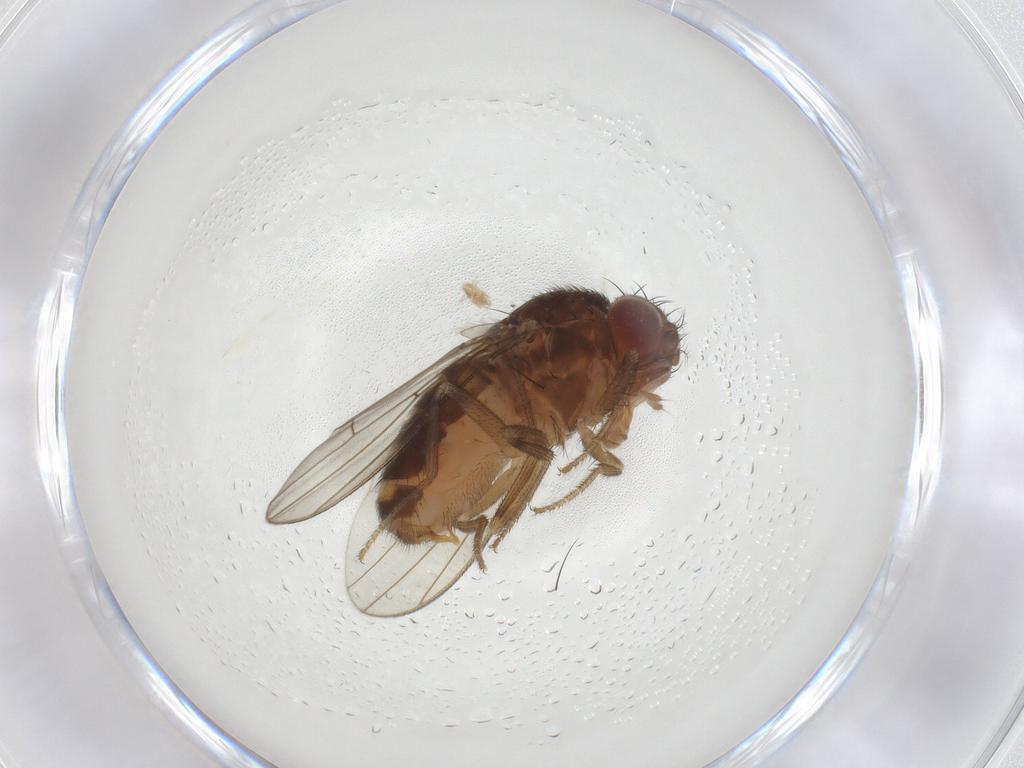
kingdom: Animalia
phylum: Arthropoda
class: Insecta
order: Diptera
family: Drosophilidae
